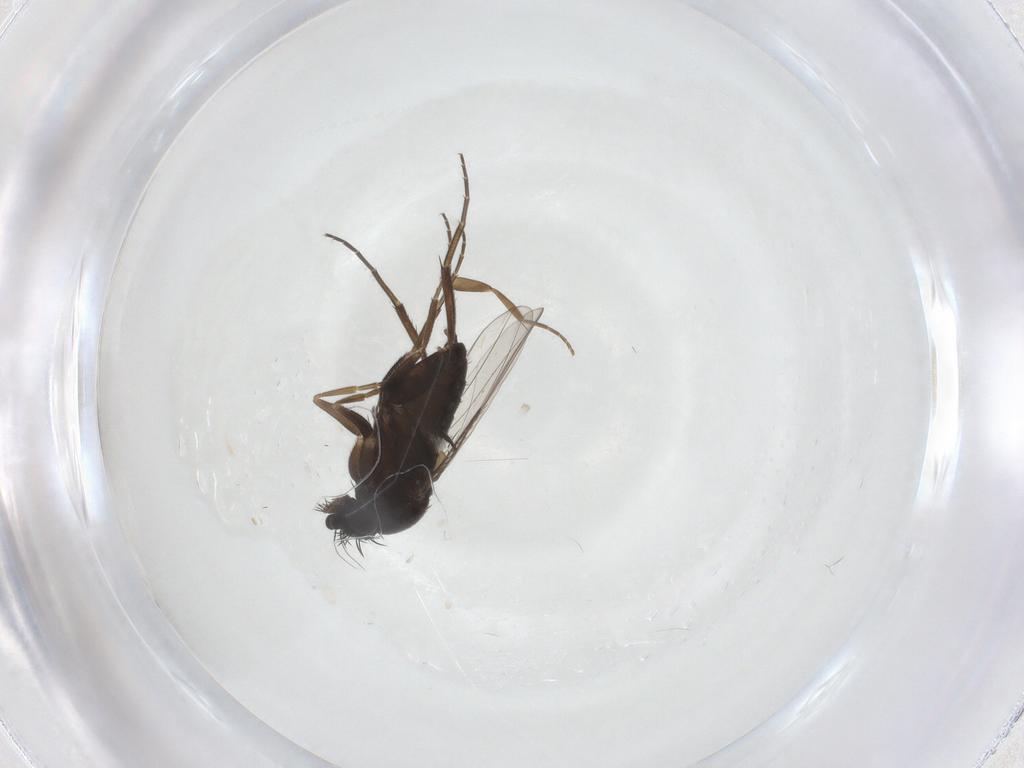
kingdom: Animalia
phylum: Arthropoda
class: Insecta
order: Diptera
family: Phoridae
